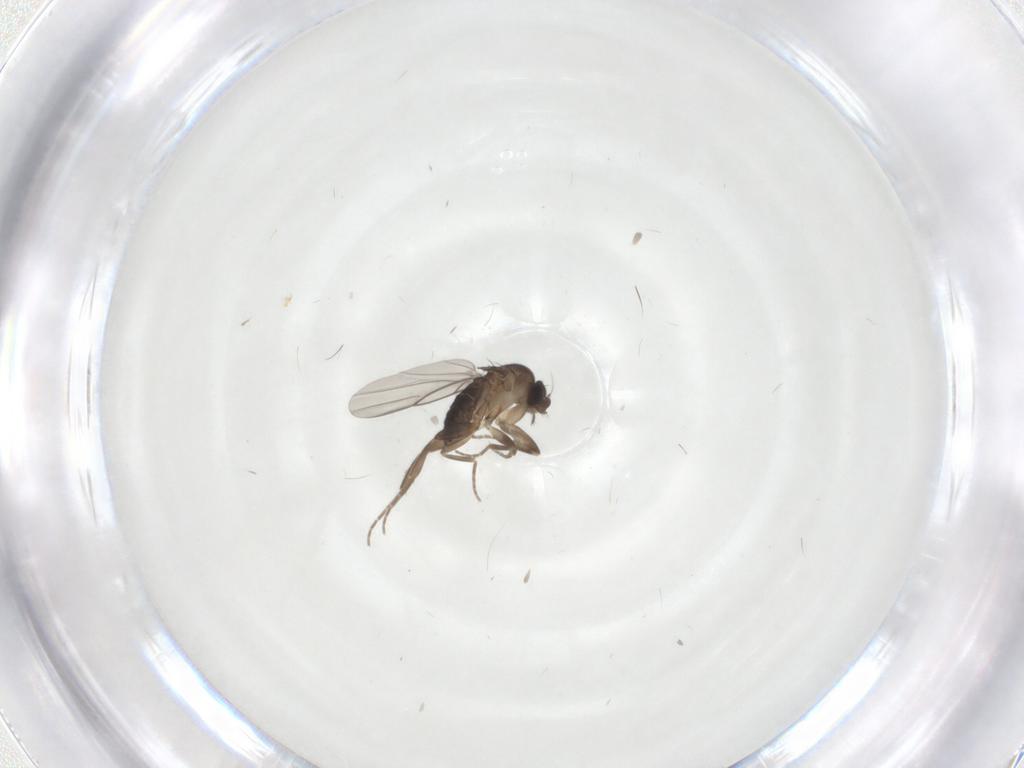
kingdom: Animalia
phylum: Arthropoda
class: Insecta
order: Diptera
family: Phoridae
